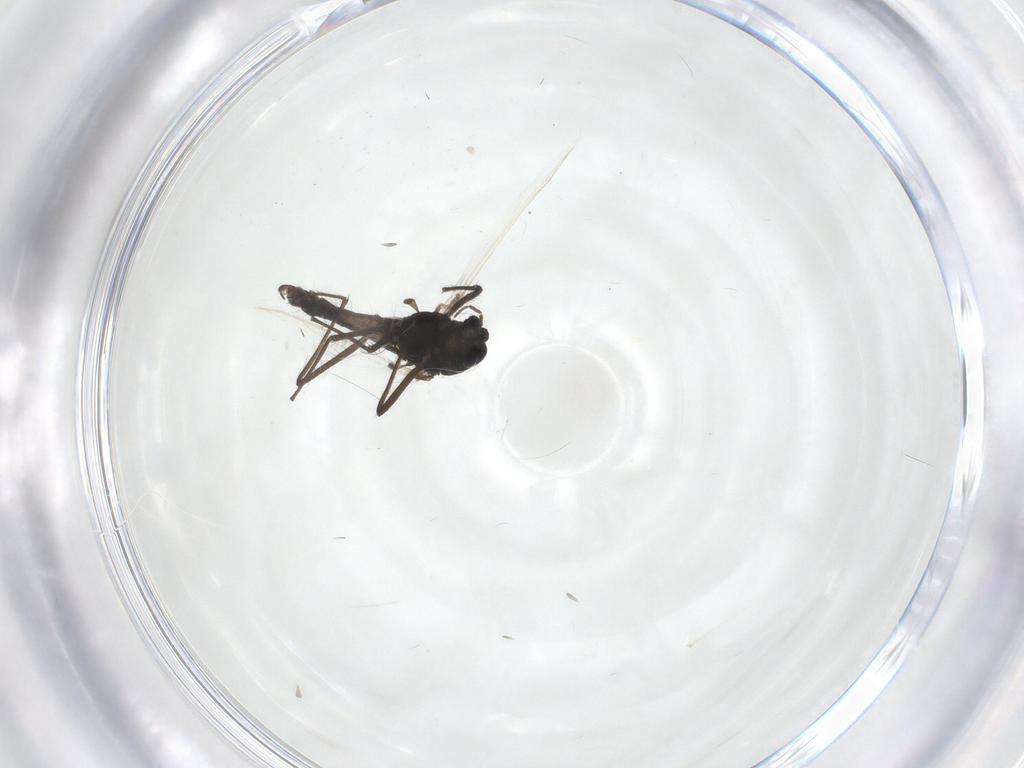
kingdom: Animalia
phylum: Arthropoda
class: Insecta
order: Diptera
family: Chironomidae
